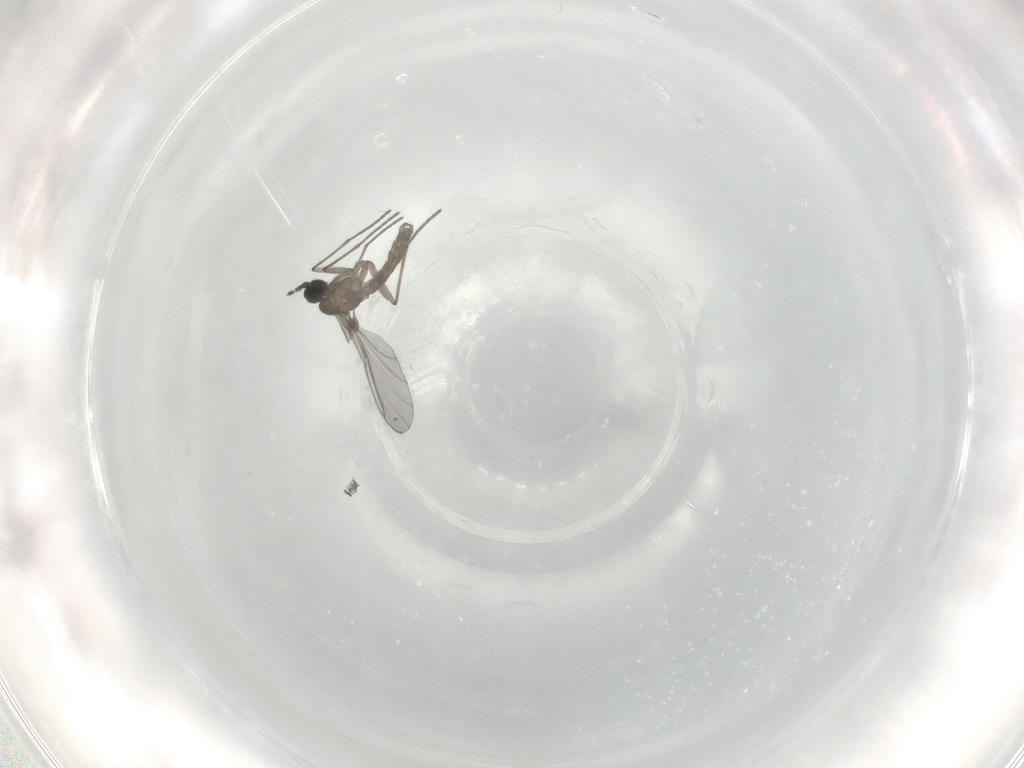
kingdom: Animalia
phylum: Arthropoda
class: Insecta
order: Diptera
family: Sciaridae
